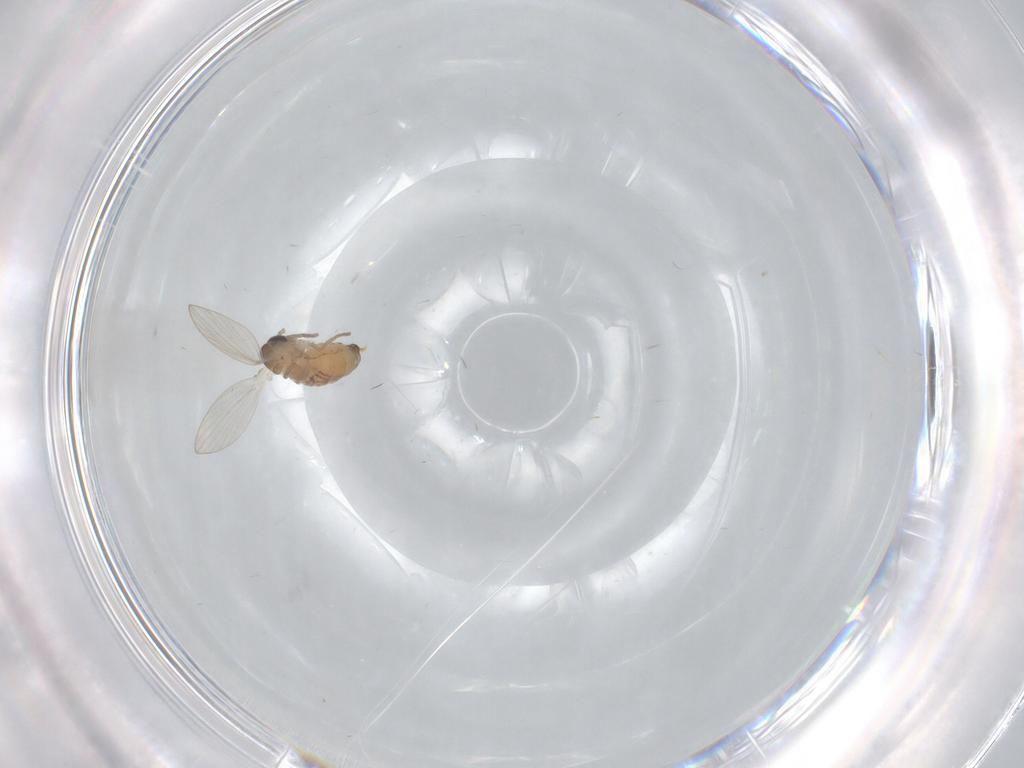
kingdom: Animalia
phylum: Arthropoda
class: Insecta
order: Diptera
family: Psychodidae
